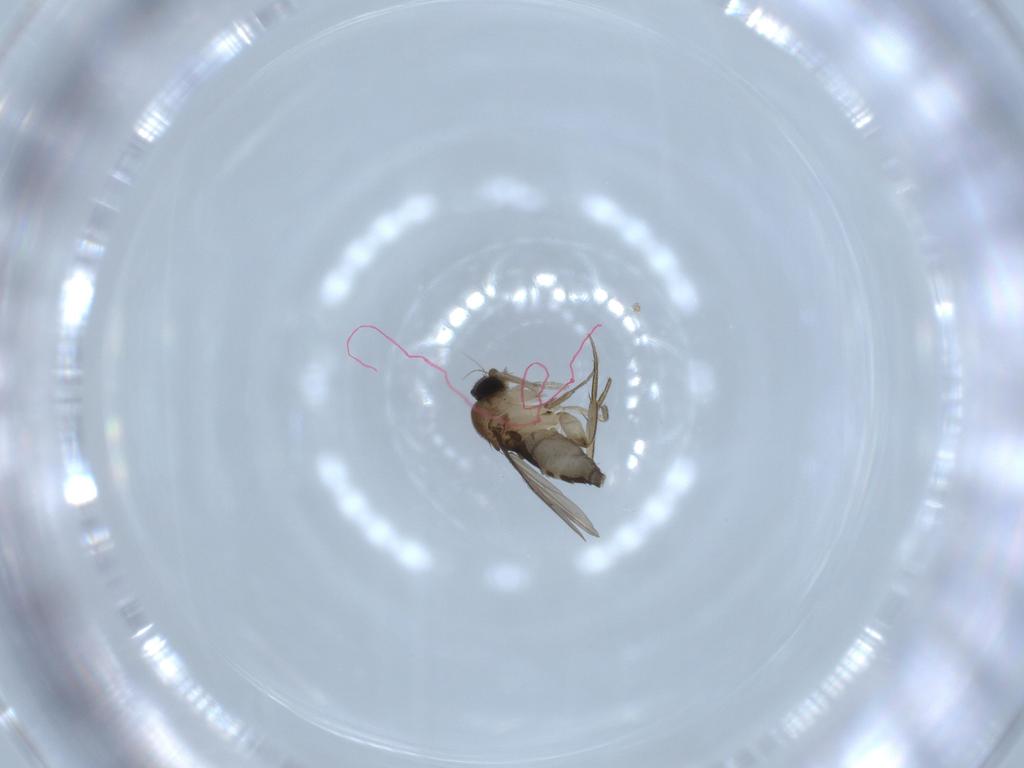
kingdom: Animalia
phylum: Arthropoda
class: Insecta
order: Diptera
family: Phoridae
